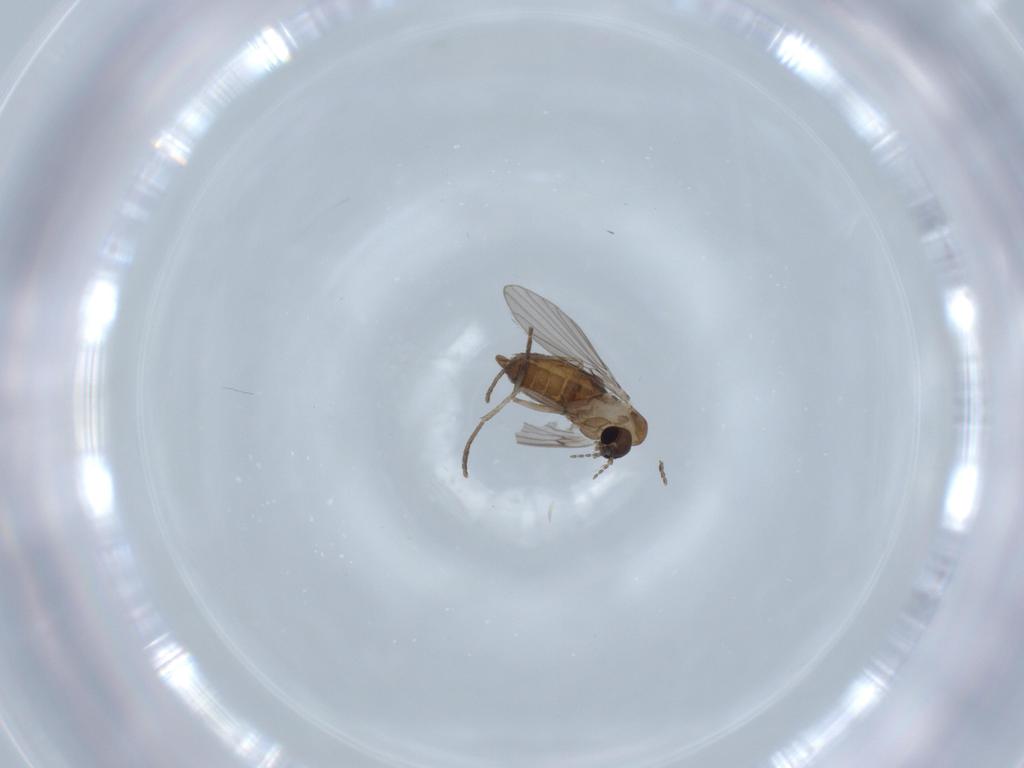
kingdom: Animalia
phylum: Arthropoda
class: Insecta
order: Diptera
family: Psychodidae
